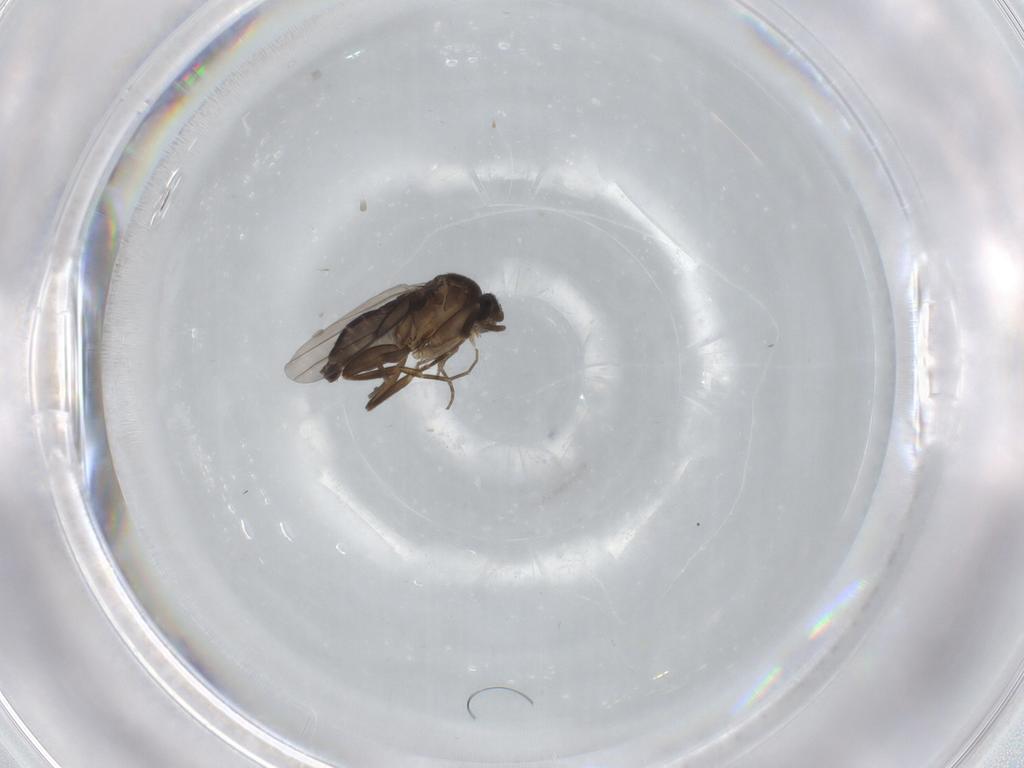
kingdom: Animalia
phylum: Arthropoda
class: Insecta
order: Diptera
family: Phoridae
